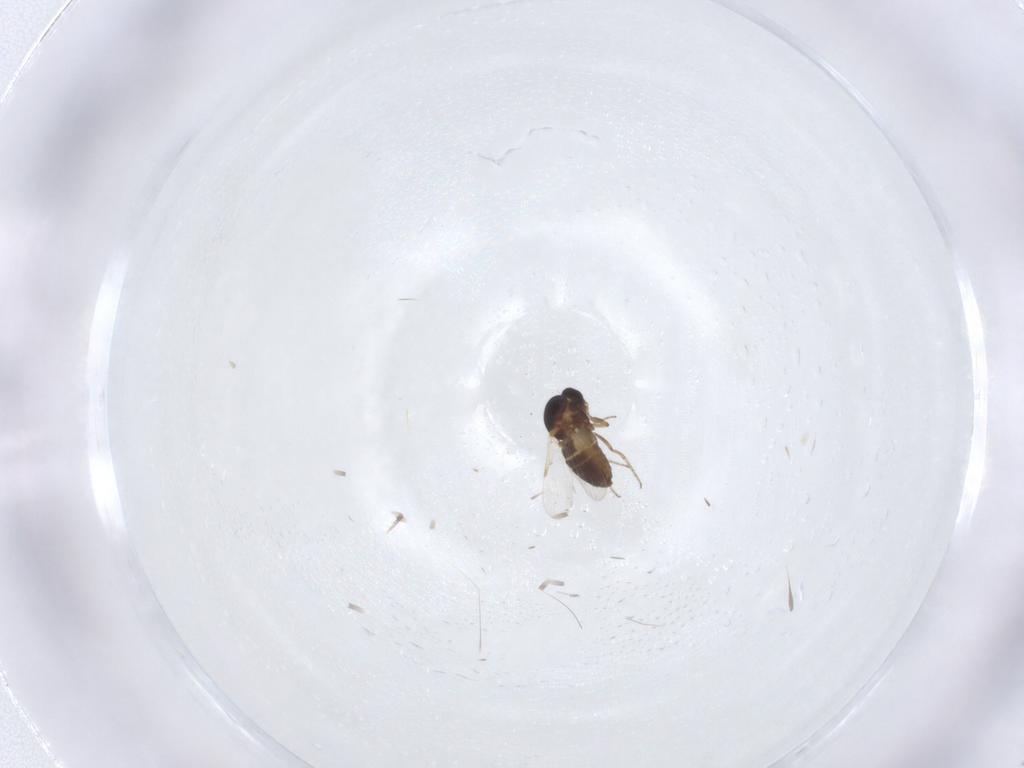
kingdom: Animalia
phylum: Arthropoda
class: Insecta
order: Diptera
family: Ceratopogonidae
